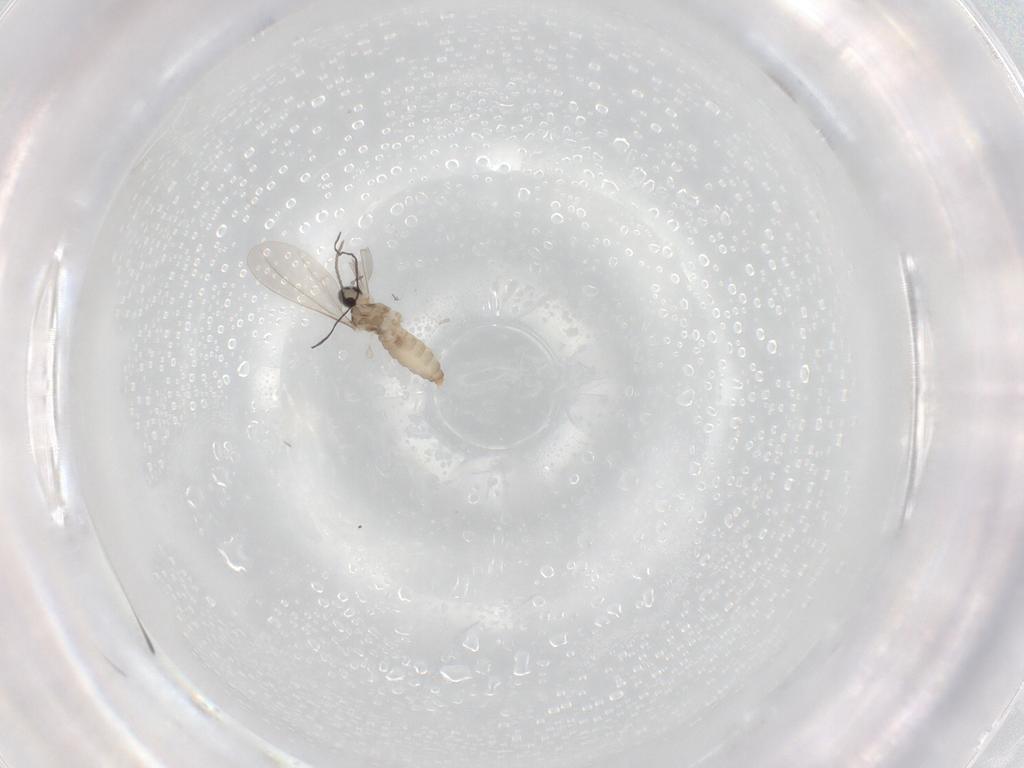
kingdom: Animalia
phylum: Arthropoda
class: Insecta
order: Diptera
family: Cecidomyiidae
